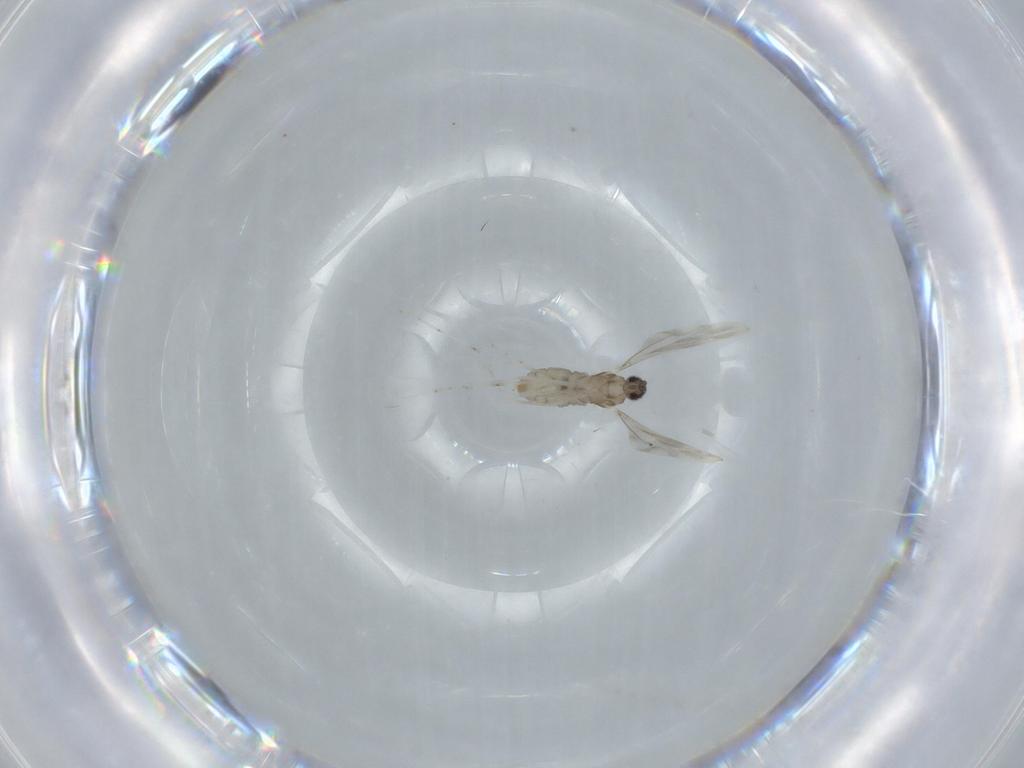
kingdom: Animalia
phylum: Arthropoda
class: Insecta
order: Diptera
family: Cecidomyiidae
